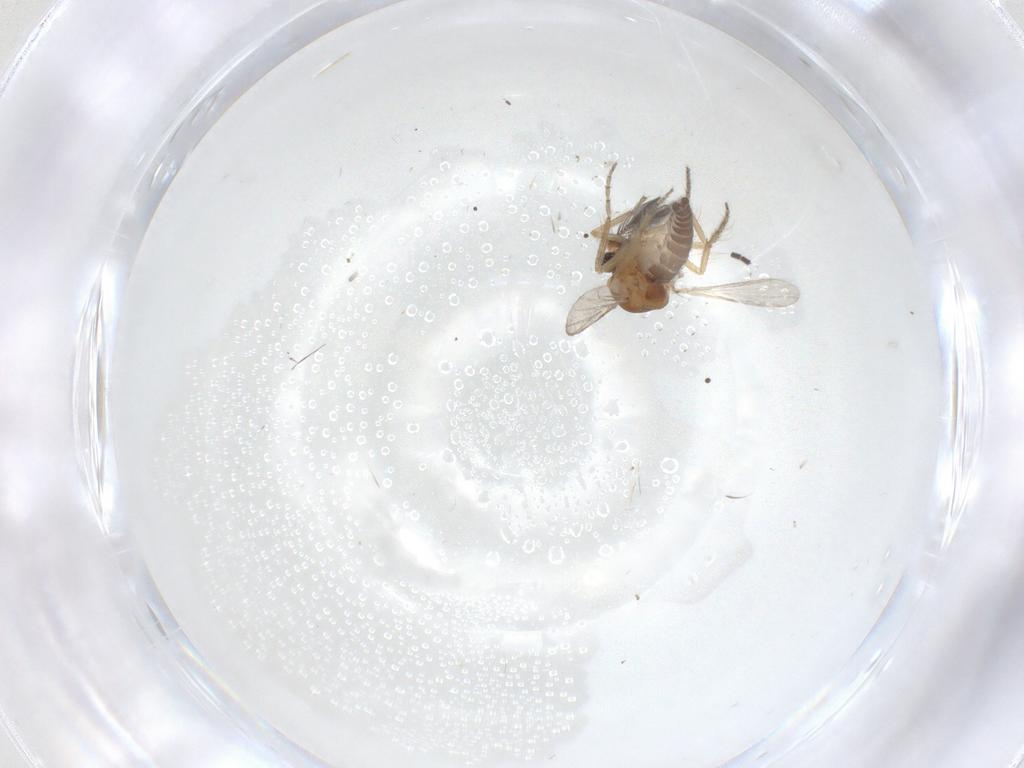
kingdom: Animalia
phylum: Arthropoda
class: Insecta
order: Diptera
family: Sciaridae
